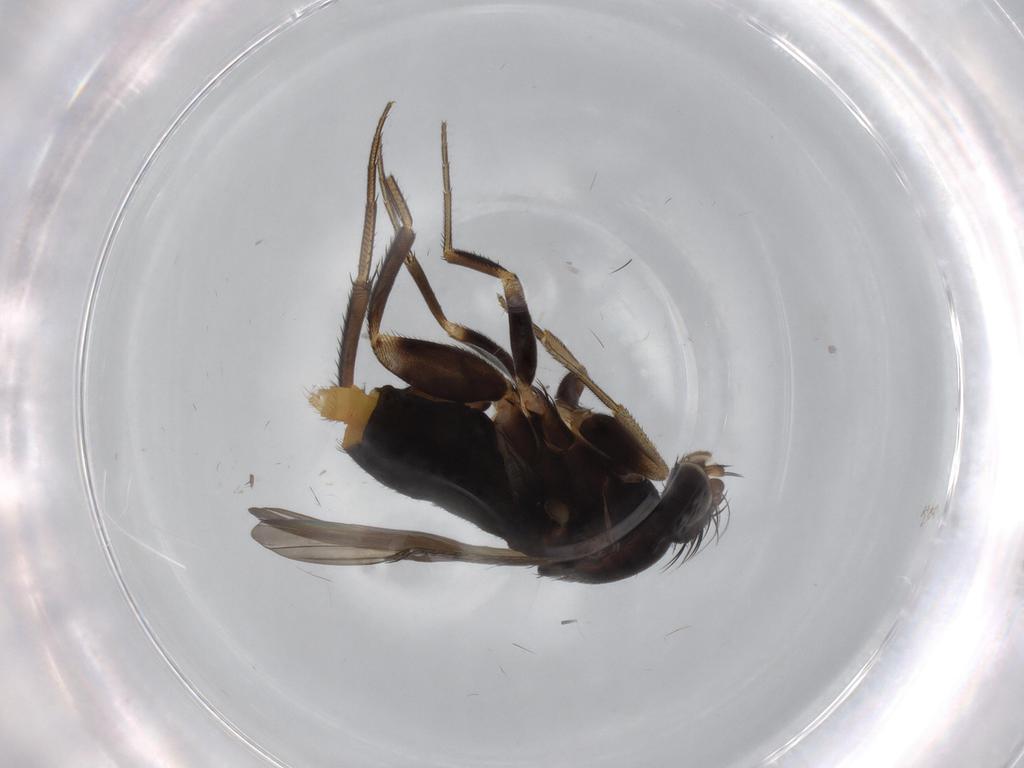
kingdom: Animalia
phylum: Arthropoda
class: Insecta
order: Diptera
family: Phoridae
